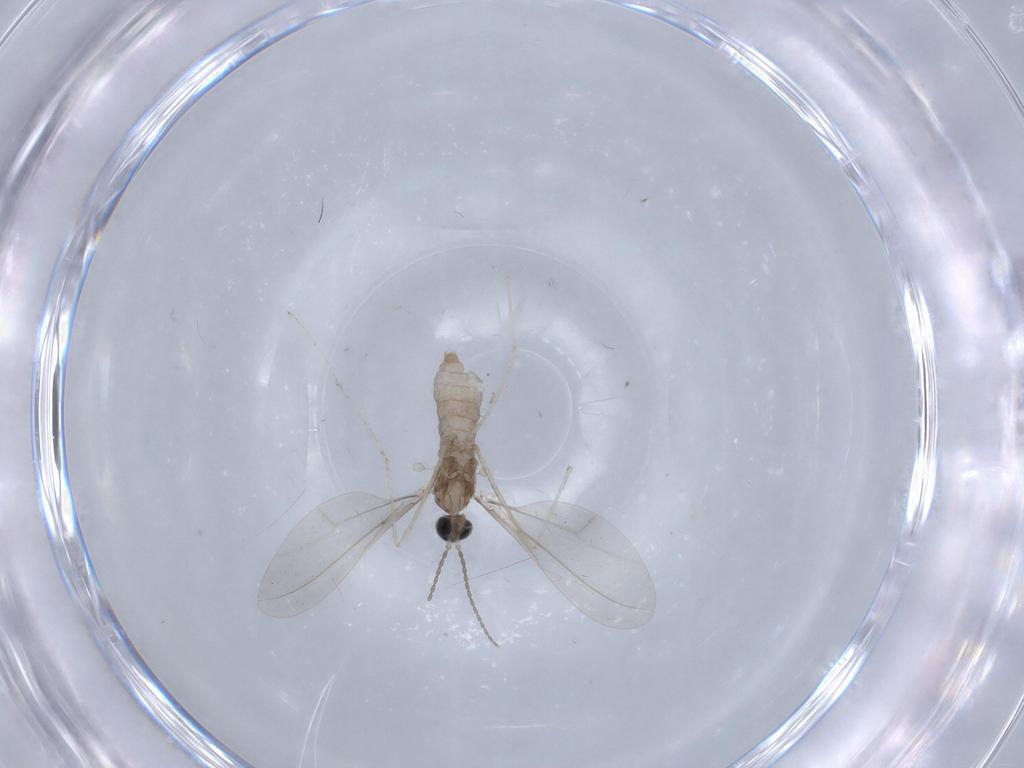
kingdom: Animalia
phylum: Arthropoda
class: Insecta
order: Diptera
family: Cecidomyiidae
